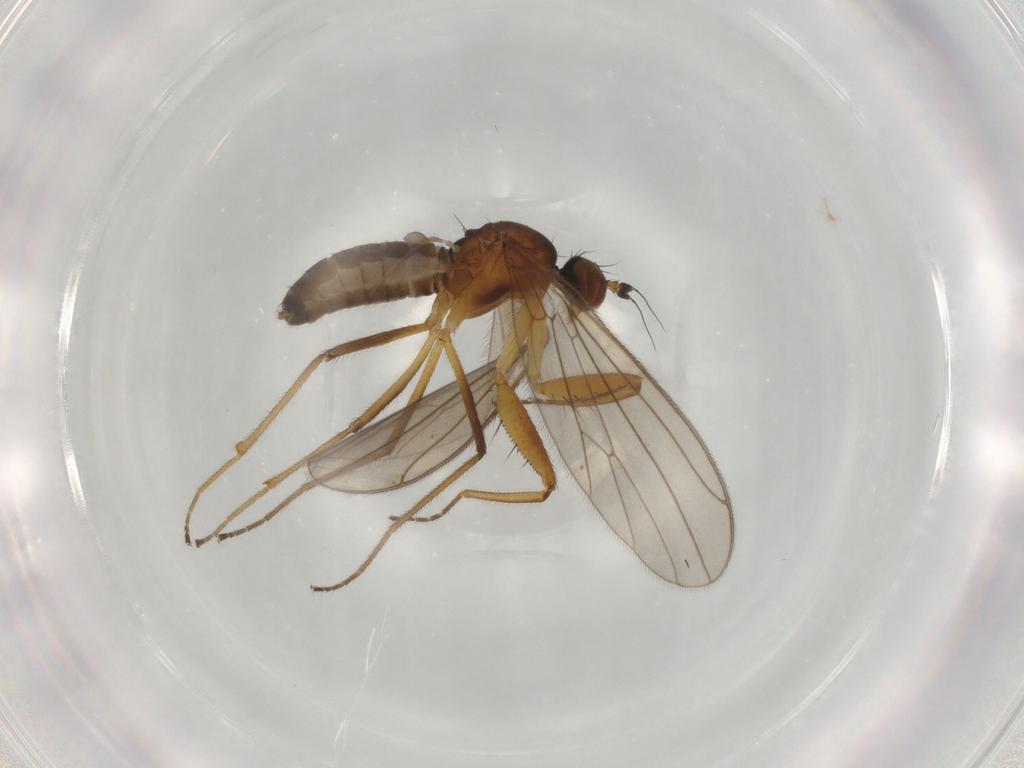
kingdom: Animalia
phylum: Arthropoda
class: Insecta
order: Diptera
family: Empididae
